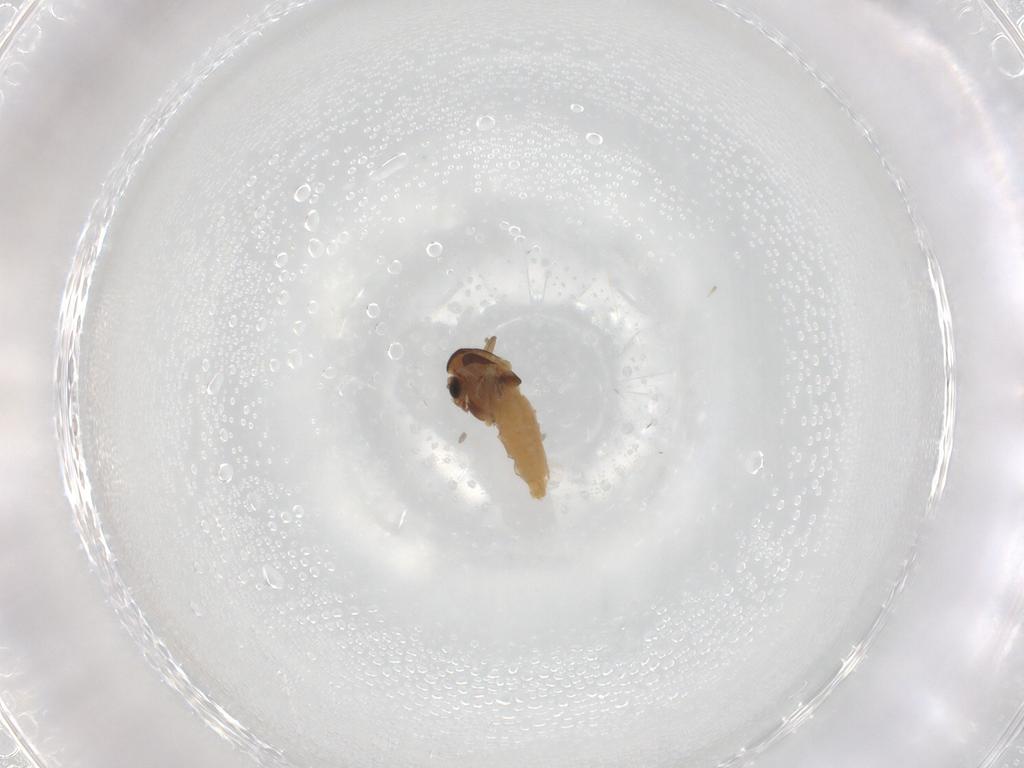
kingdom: Animalia
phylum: Arthropoda
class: Insecta
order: Diptera
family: Chironomidae
